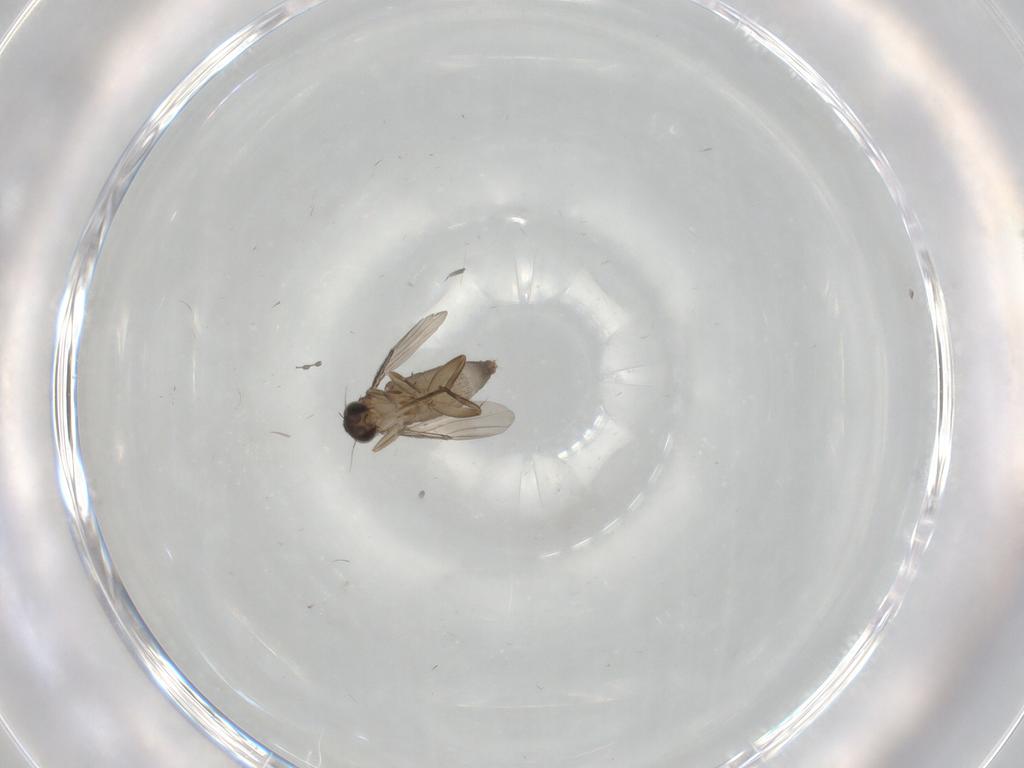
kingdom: Animalia
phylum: Arthropoda
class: Insecta
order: Diptera
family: Phoridae
